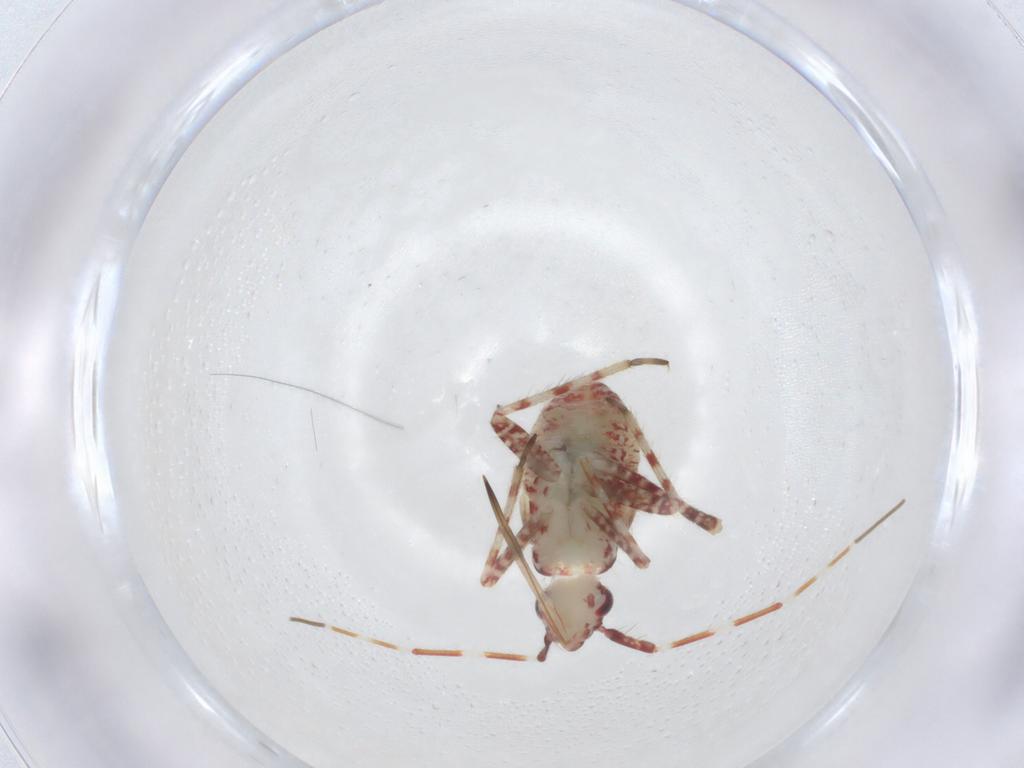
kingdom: Animalia
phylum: Arthropoda
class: Insecta
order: Hemiptera
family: Miridae
